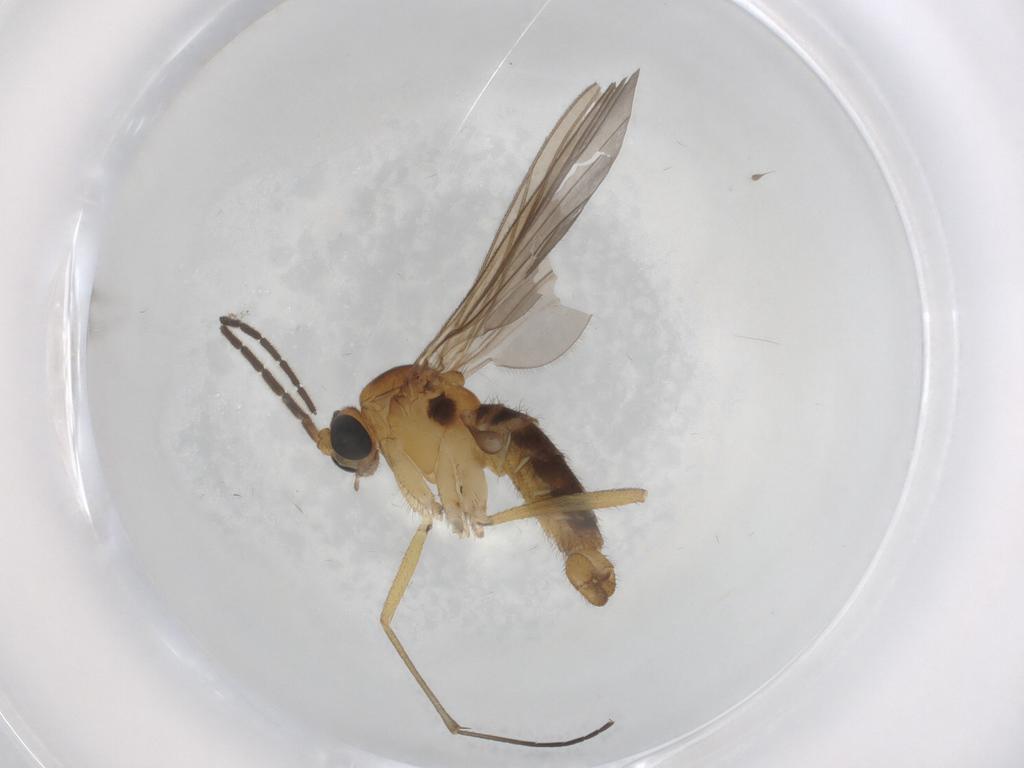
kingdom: Animalia
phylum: Arthropoda
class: Insecta
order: Diptera
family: Sciaridae
